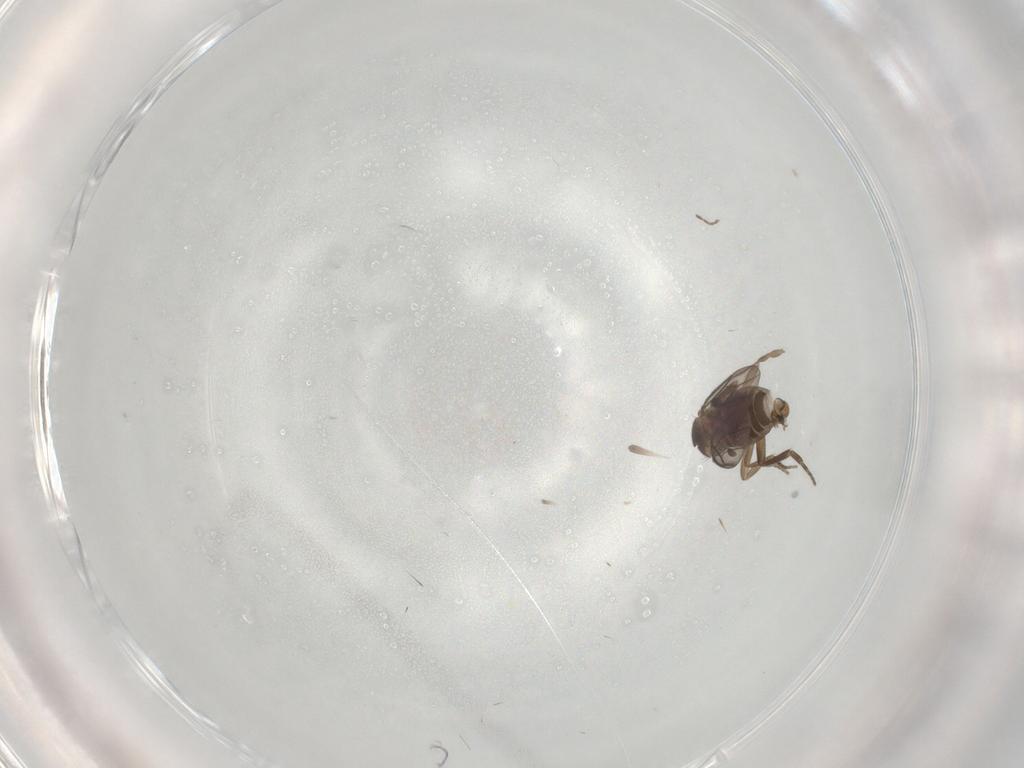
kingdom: Animalia
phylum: Arthropoda
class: Insecta
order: Diptera
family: Phoridae
